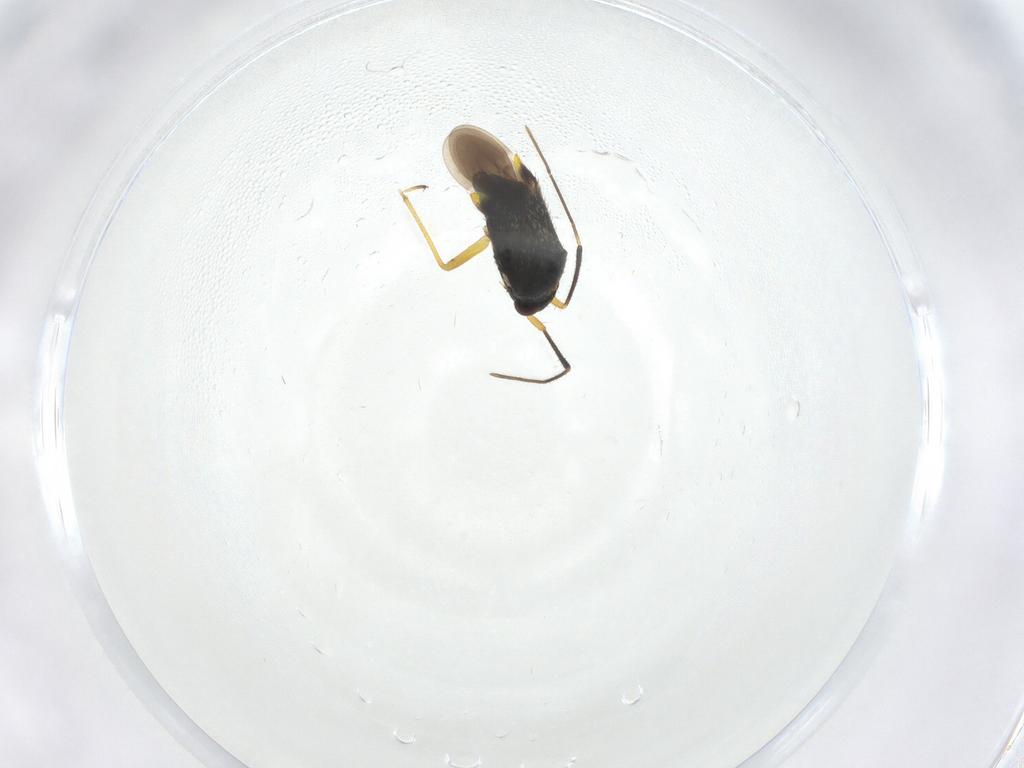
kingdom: Animalia
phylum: Arthropoda
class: Insecta
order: Hemiptera
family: Miridae
